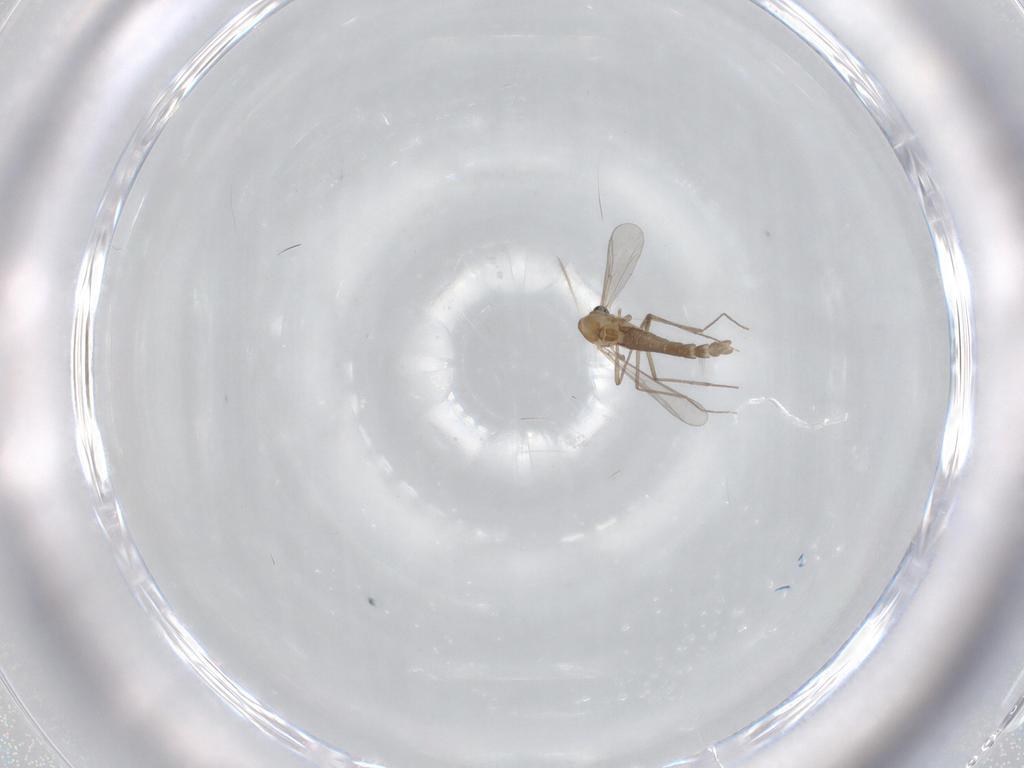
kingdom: Animalia
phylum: Arthropoda
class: Insecta
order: Diptera
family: Chironomidae
